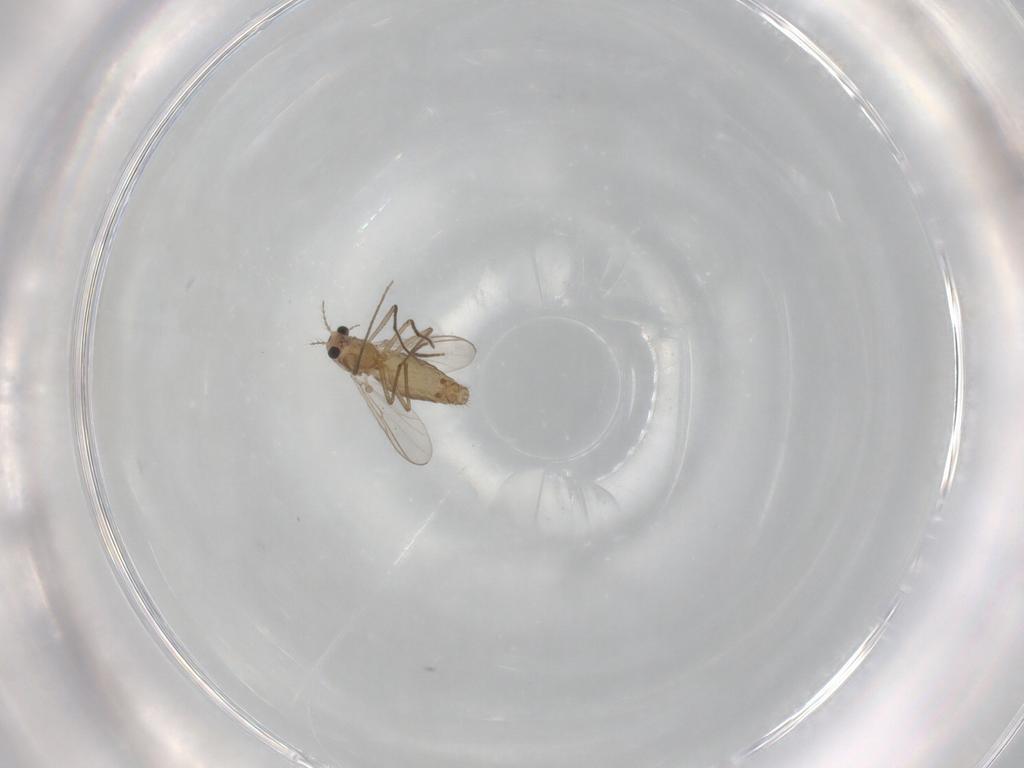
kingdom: Animalia
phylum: Arthropoda
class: Insecta
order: Diptera
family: Chironomidae
